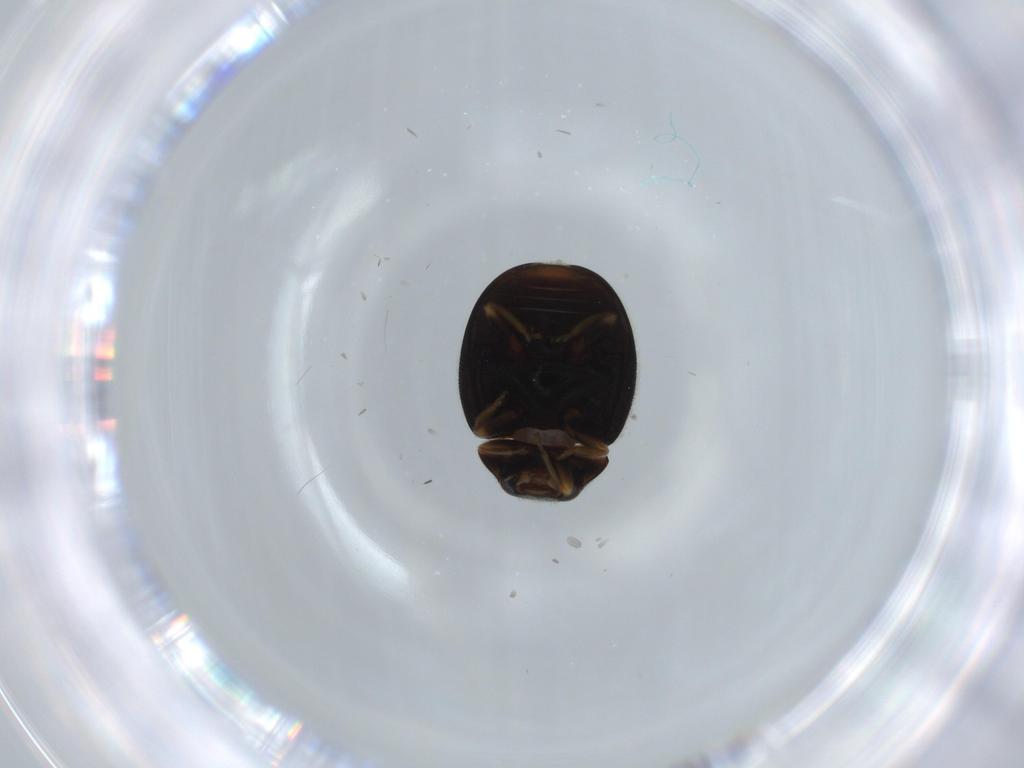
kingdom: Animalia
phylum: Arthropoda
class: Insecta
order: Coleoptera
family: Coccinellidae
